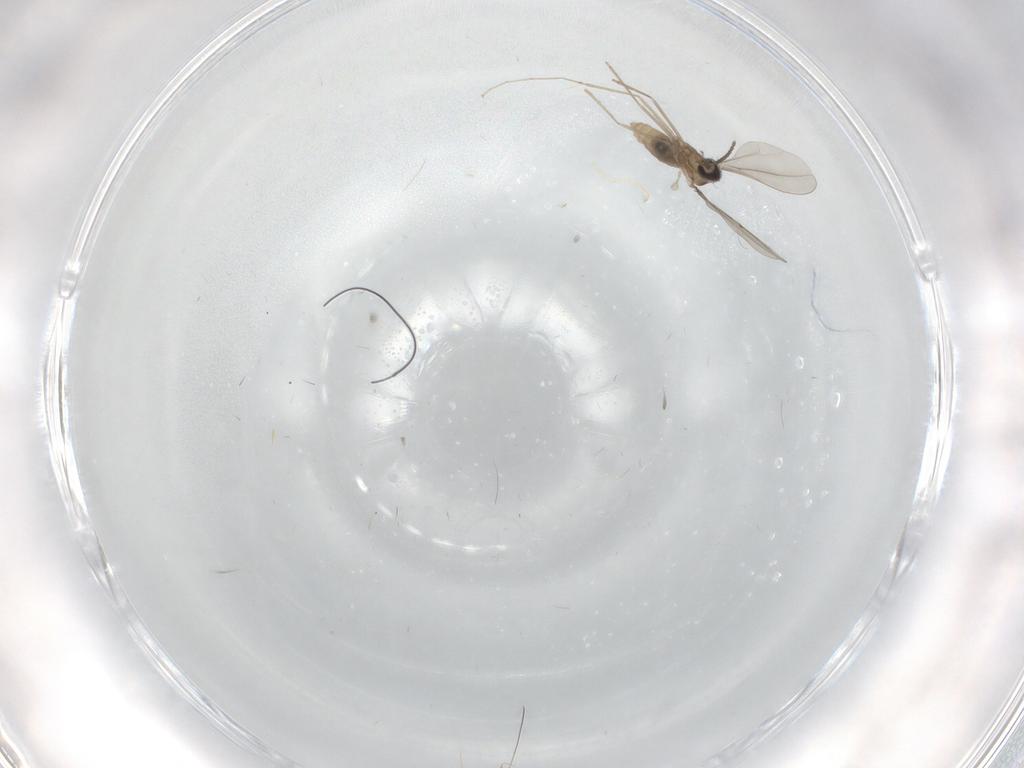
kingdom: Animalia
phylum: Arthropoda
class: Insecta
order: Diptera
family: Cecidomyiidae
